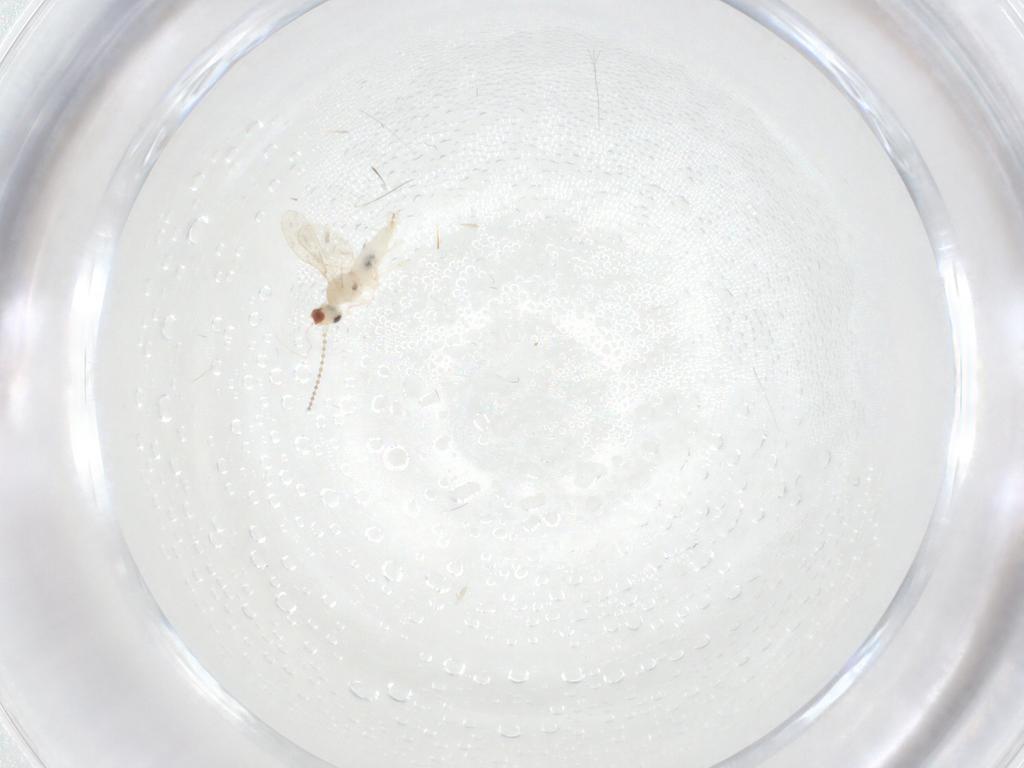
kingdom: Animalia
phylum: Arthropoda
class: Insecta
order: Diptera
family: Cecidomyiidae
